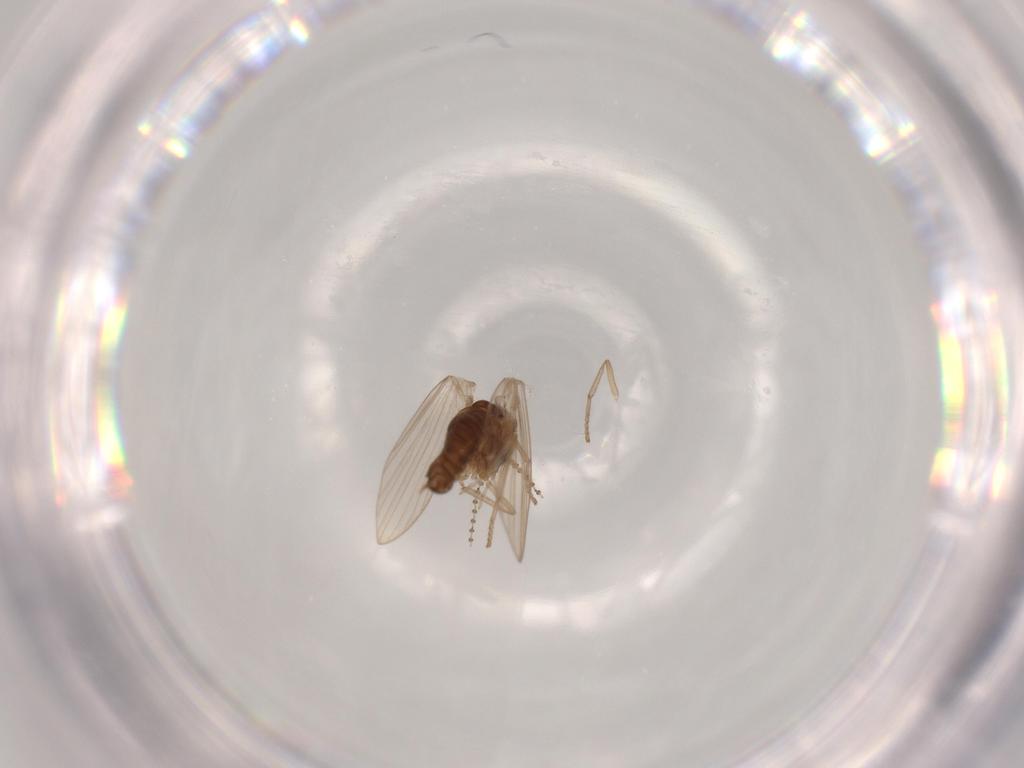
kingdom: Animalia
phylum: Arthropoda
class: Insecta
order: Diptera
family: Psychodidae
